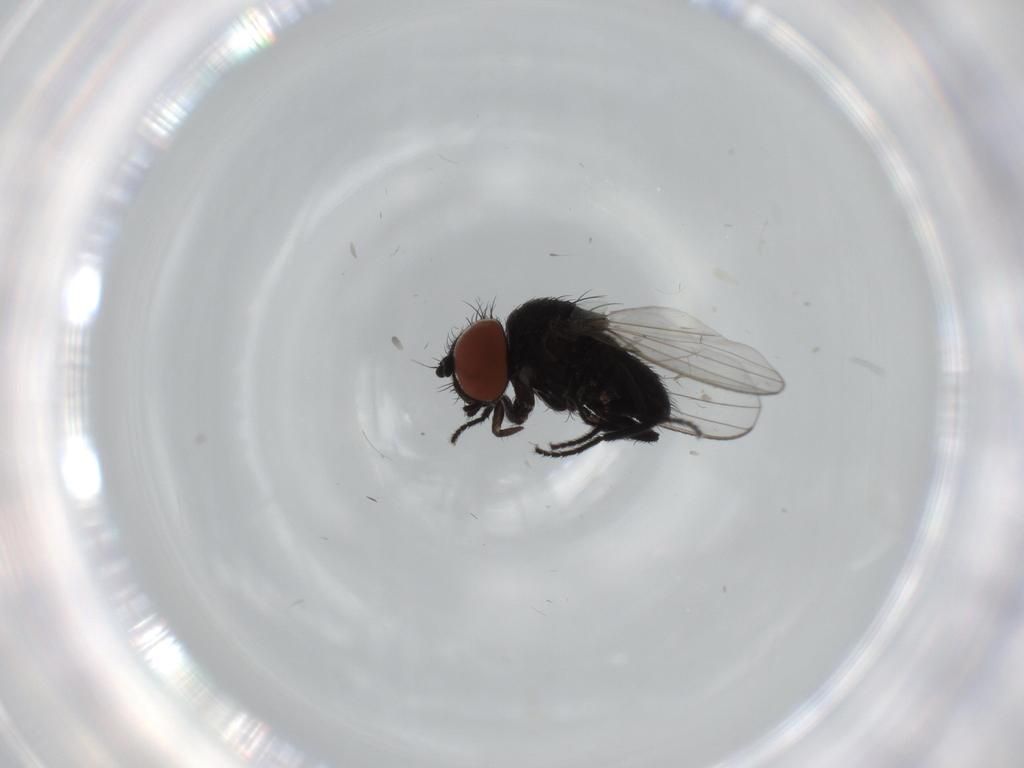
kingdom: Animalia
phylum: Arthropoda
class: Insecta
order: Diptera
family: Milichiidae
